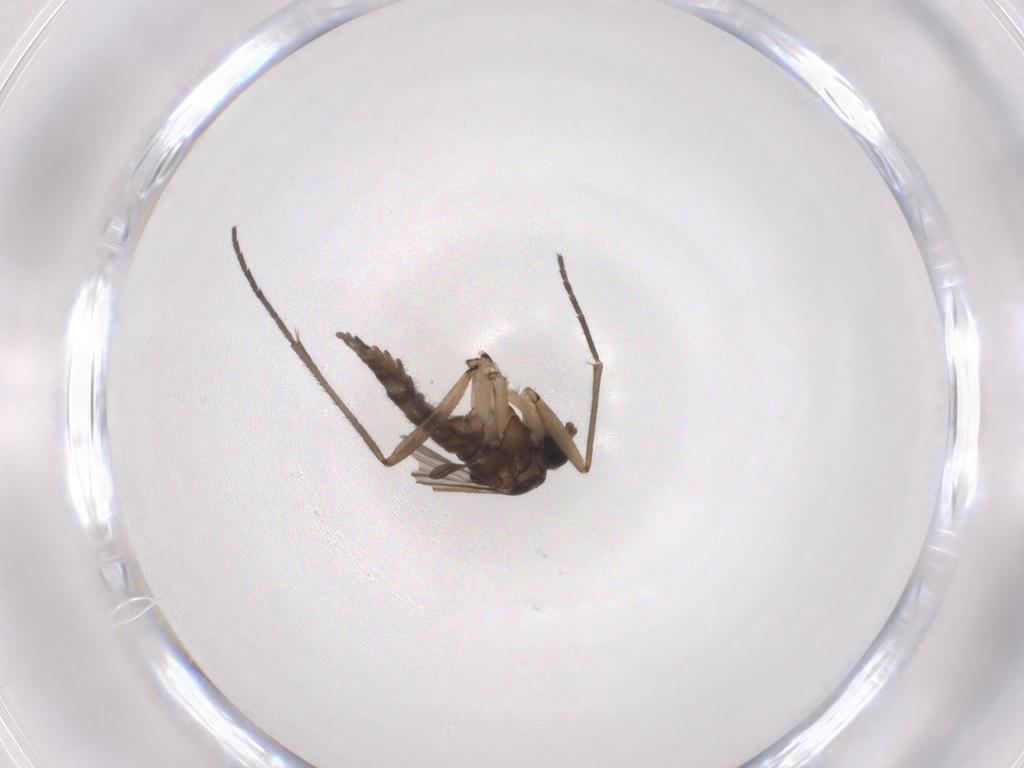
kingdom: Animalia
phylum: Arthropoda
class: Insecta
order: Diptera
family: Sciaridae
